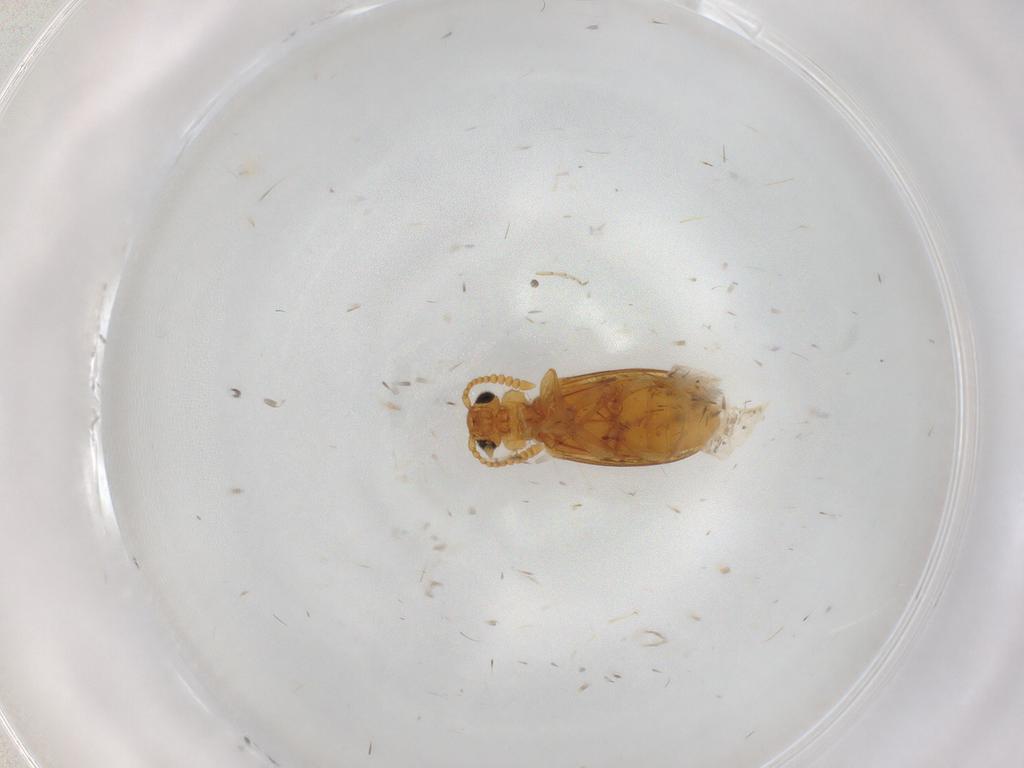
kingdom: Animalia
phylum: Arthropoda
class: Insecta
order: Coleoptera
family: Anthicidae
